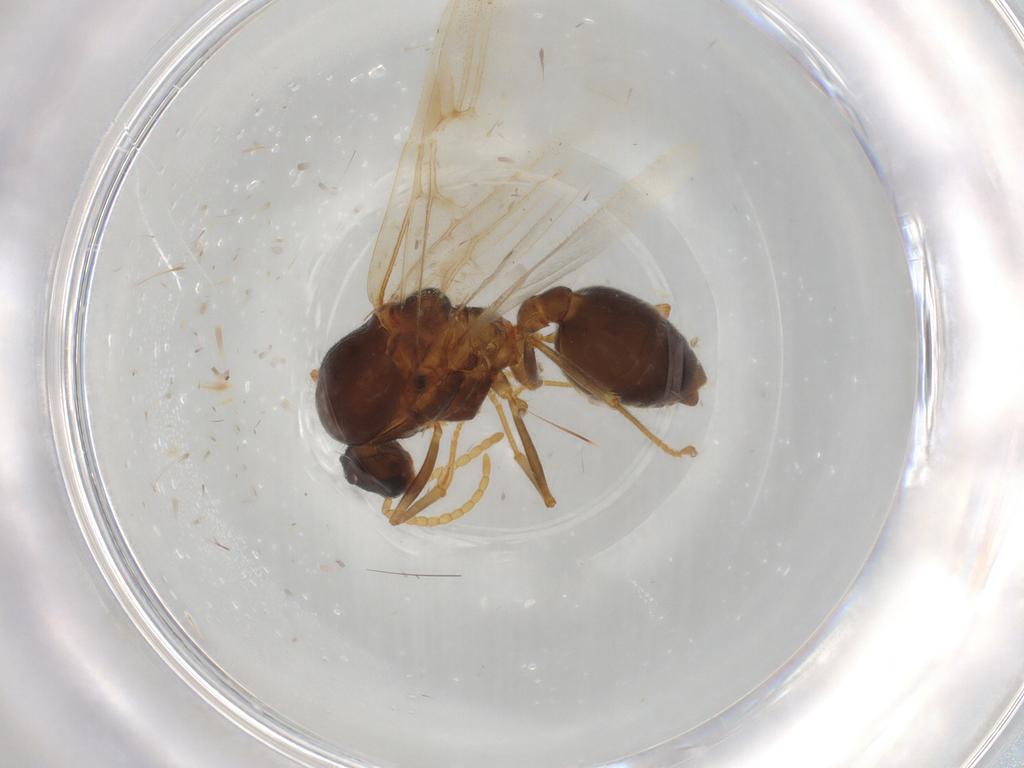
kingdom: Animalia
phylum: Arthropoda
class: Insecta
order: Hymenoptera
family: Formicidae
